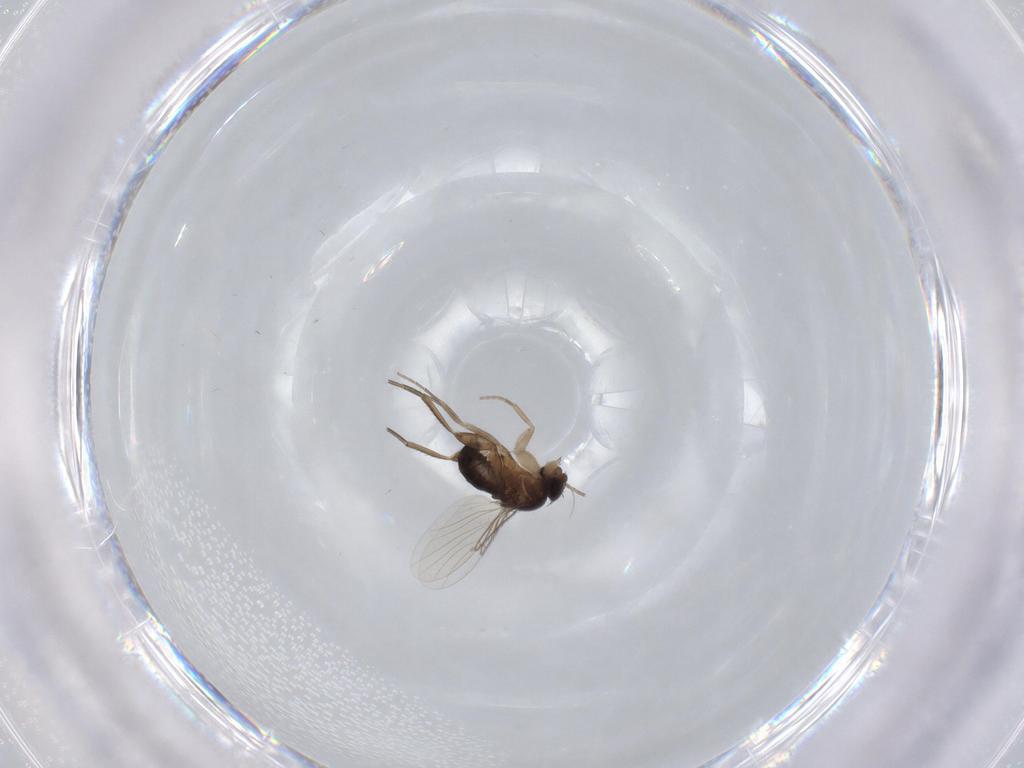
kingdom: Animalia
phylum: Arthropoda
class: Insecta
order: Diptera
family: Phoridae
